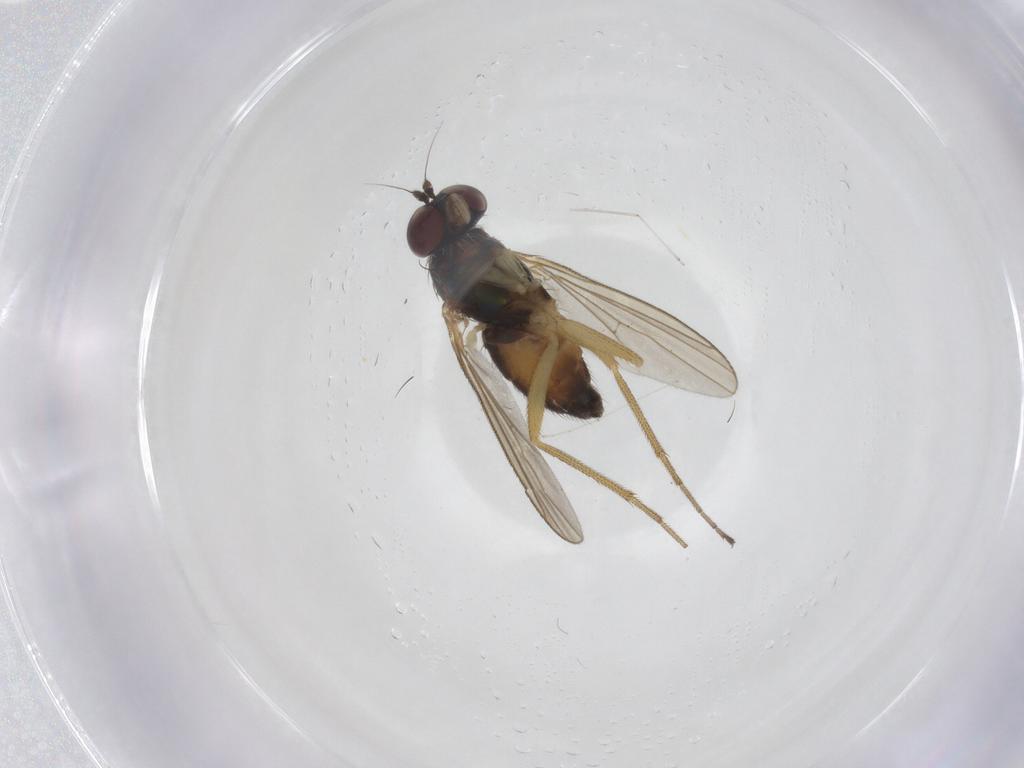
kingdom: Animalia
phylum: Arthropoda
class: Insecta
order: Diptera
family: Dolichopodidae
